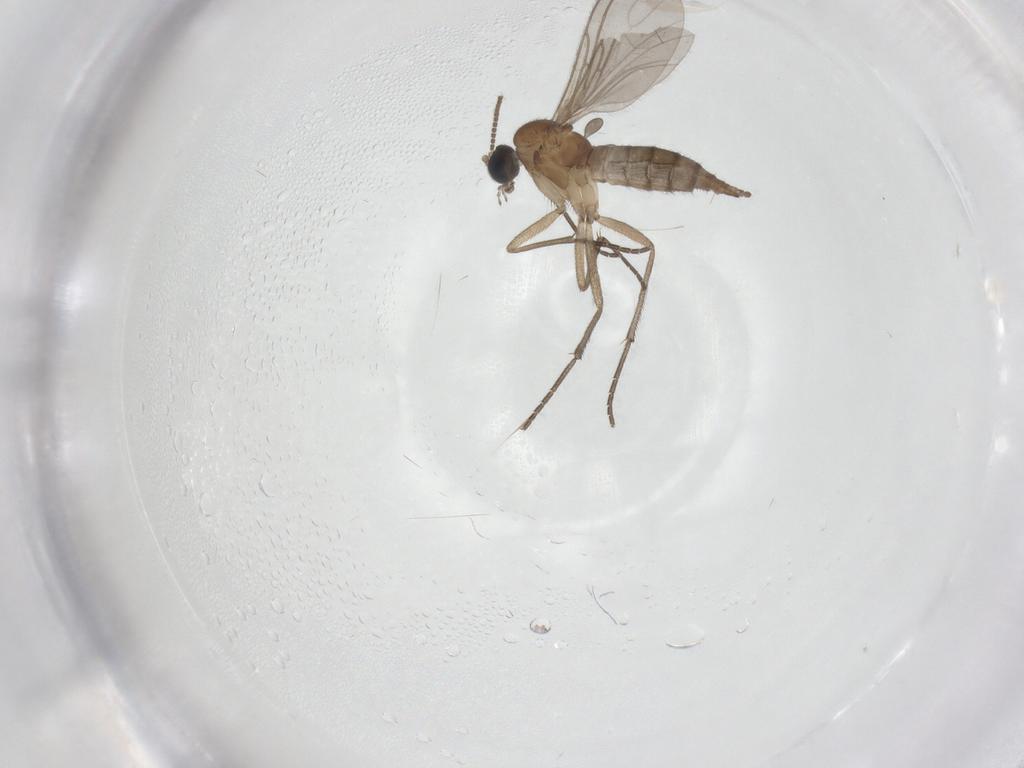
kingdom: Animalia
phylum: Arthropoda
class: Insecta
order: Diptera
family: Sciaridae
